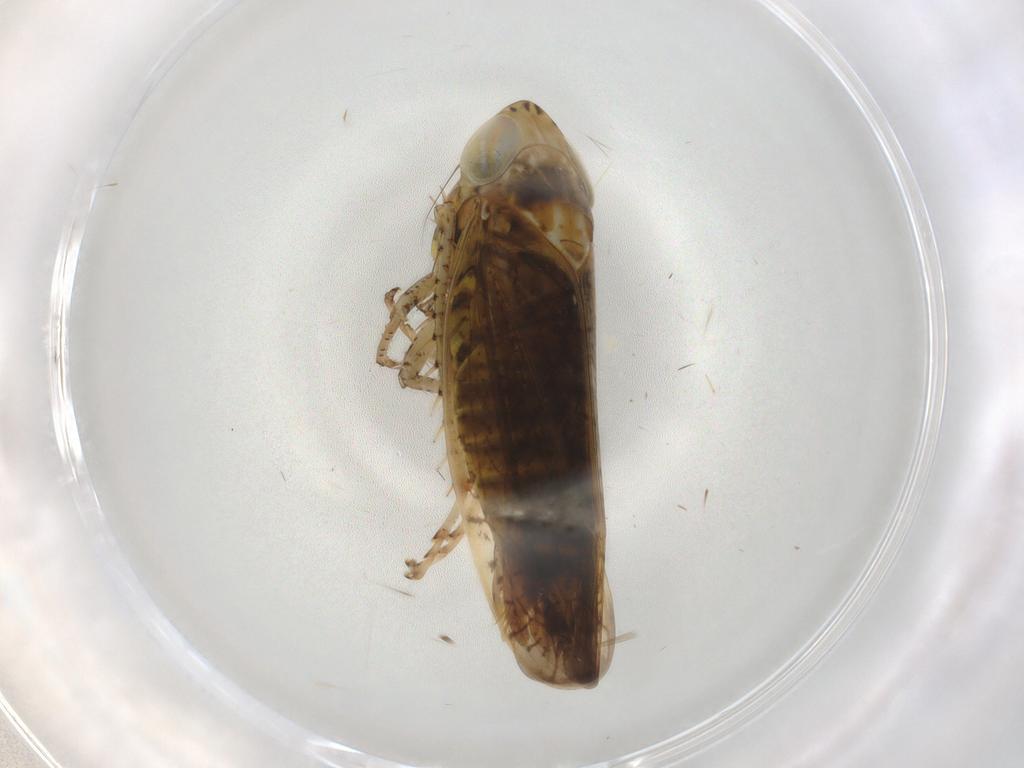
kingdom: Animalia
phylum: Arthropoda
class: Insecta
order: Hemiptera
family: Cicadellidae
